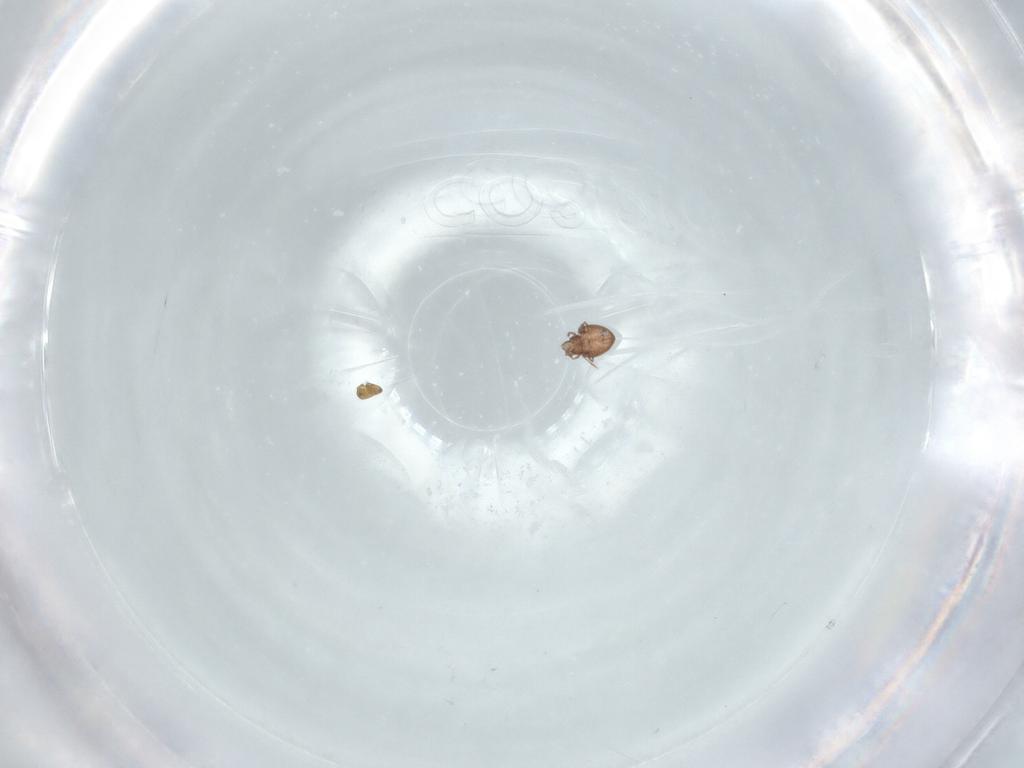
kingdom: Animalia
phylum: Arthropoda
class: Arachnida
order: Sarcoptiformes
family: Eremaeidae
